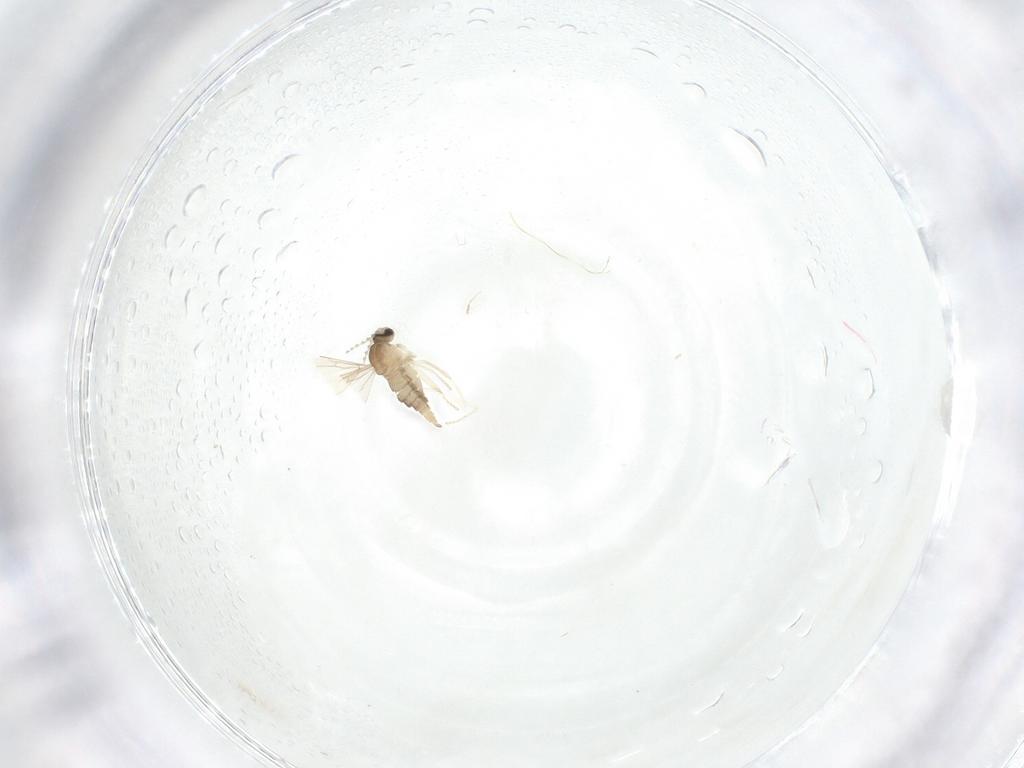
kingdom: Animalia
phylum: Arthropoda
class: Insecta
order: Diptera
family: Cecidomyiidae
